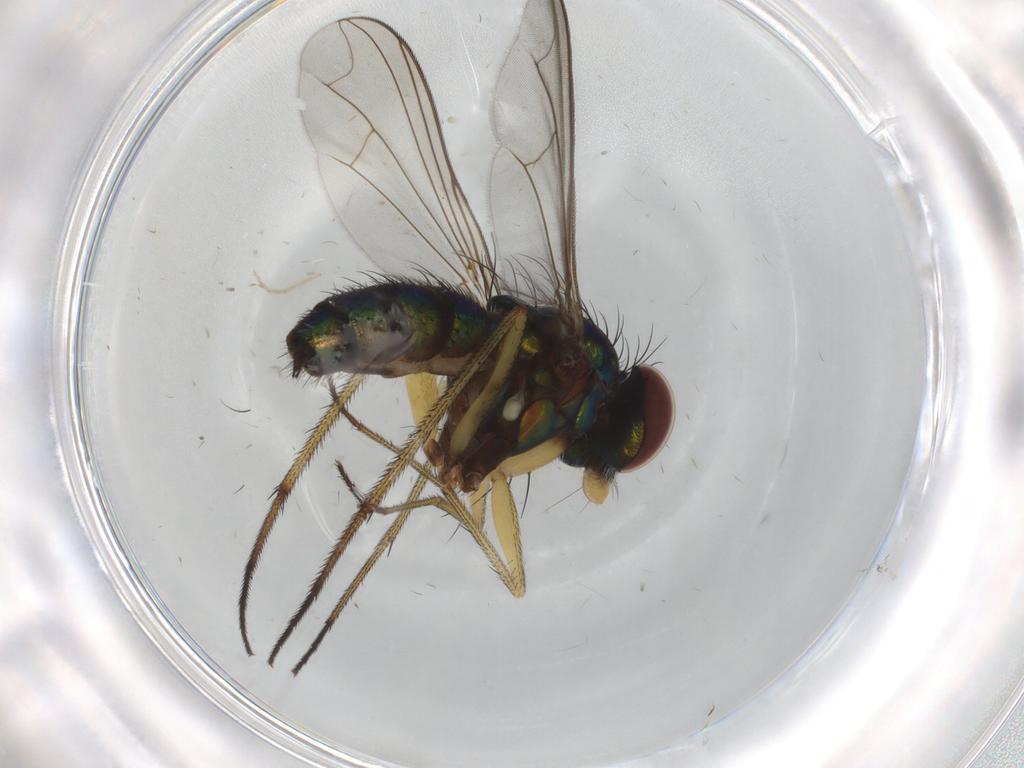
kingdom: Animalia
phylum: Arthropoda
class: Insecta
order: Diptera
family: Dolichopodidae
